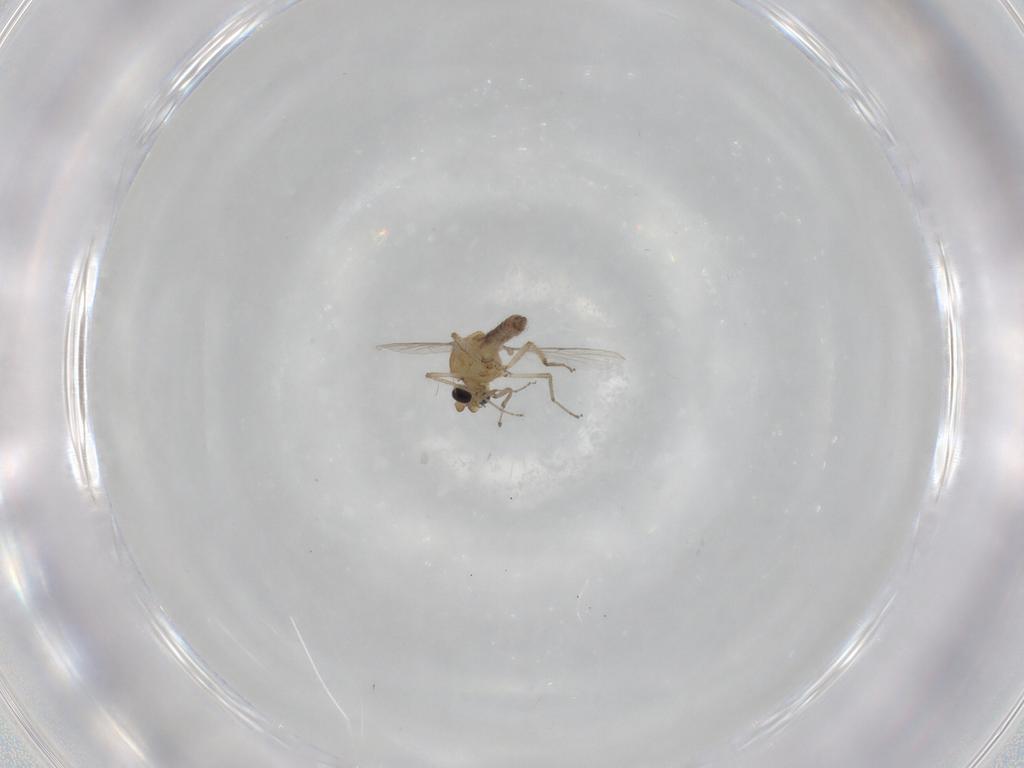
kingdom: Animalia
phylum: Arthropoda
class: Insecta
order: Diptera
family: Ceratopogonidae
